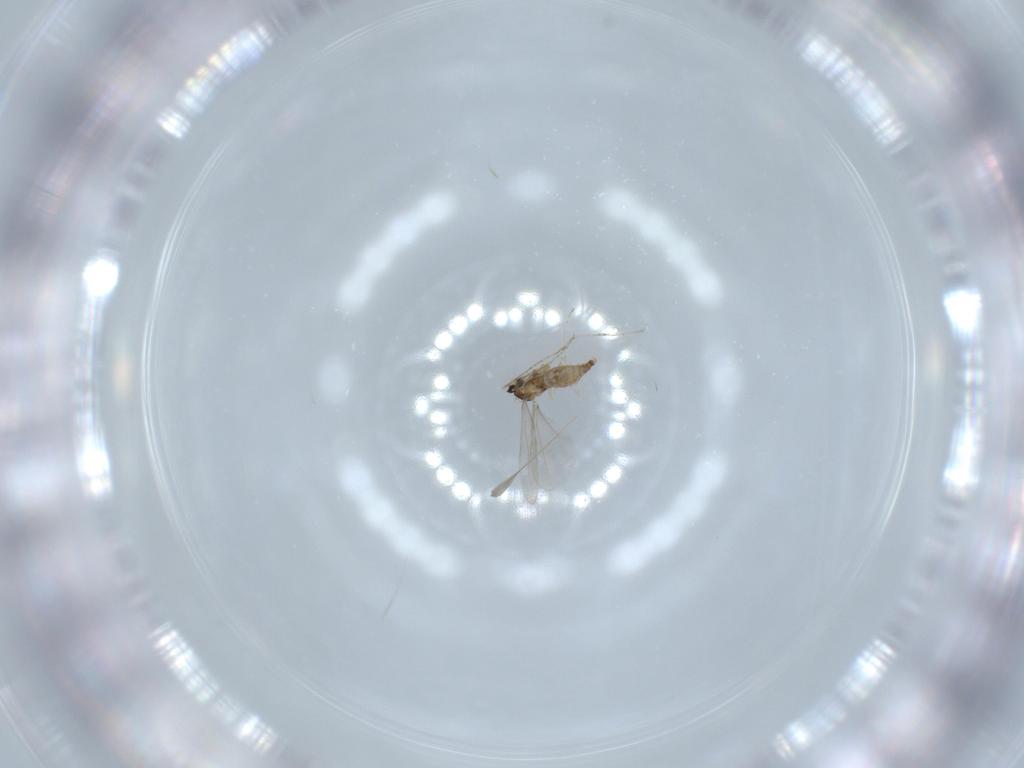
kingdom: Animalia
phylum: Arthropoda
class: Insecta
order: Diptera
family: Cecidomyiidae
